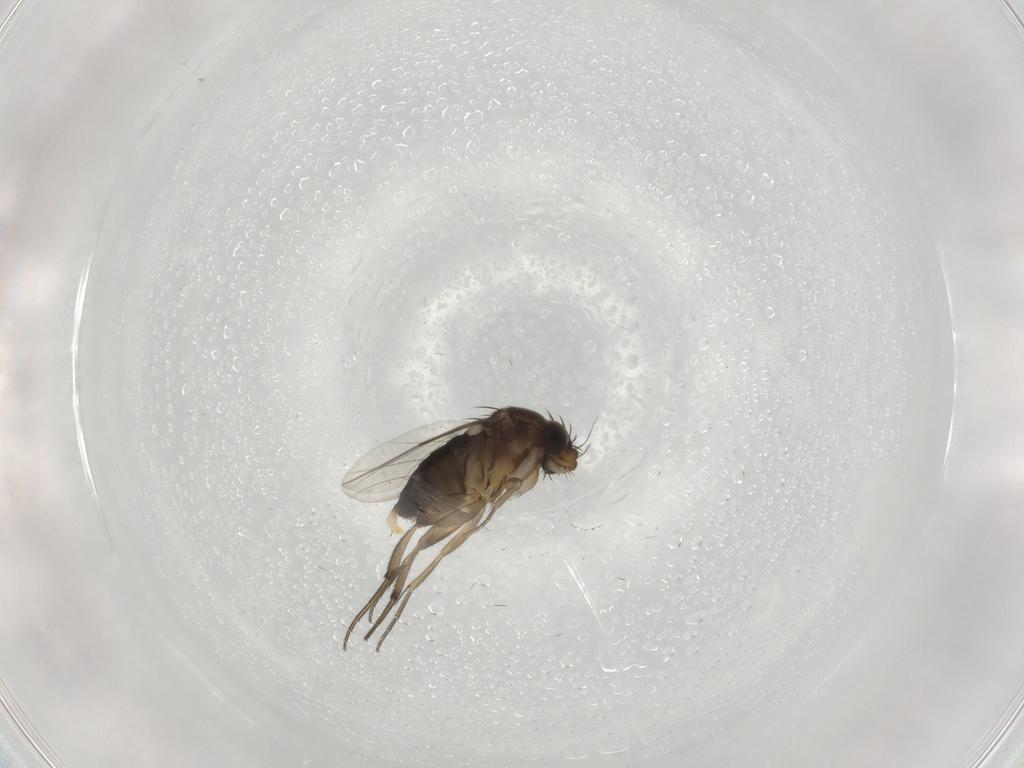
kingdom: Animalia
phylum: Arthropoda
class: Insecta
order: Diptera
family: Phoridae
